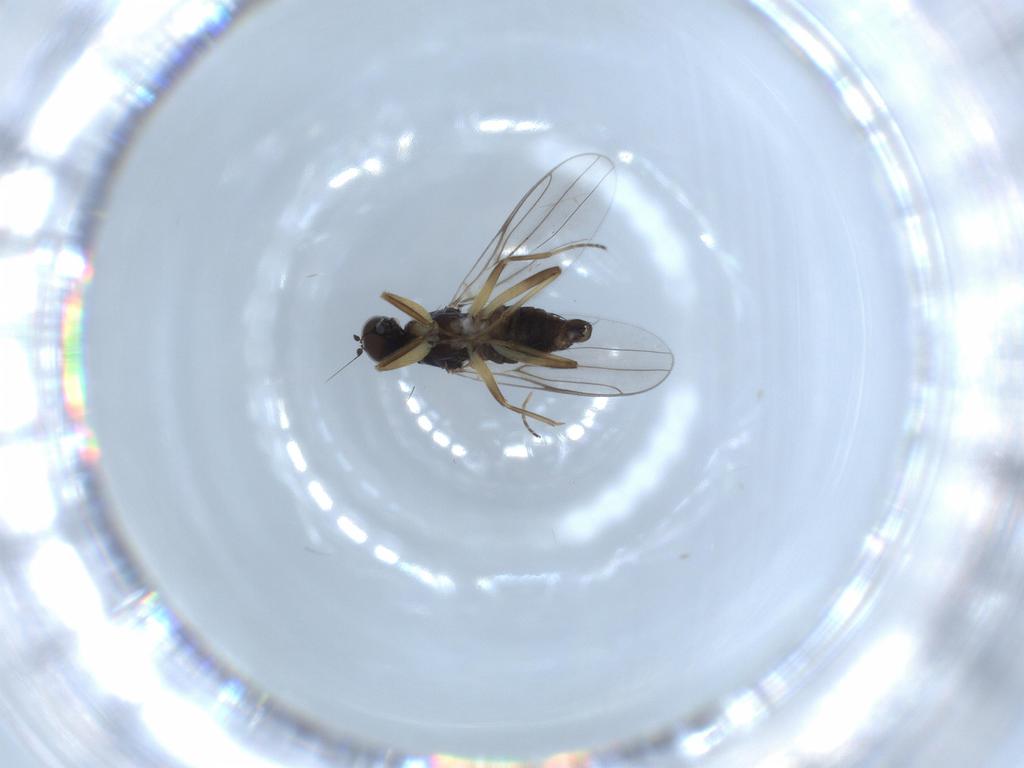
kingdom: Animalia
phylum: Arthropoda
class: Insecta
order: Diptera
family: Hybotidae
